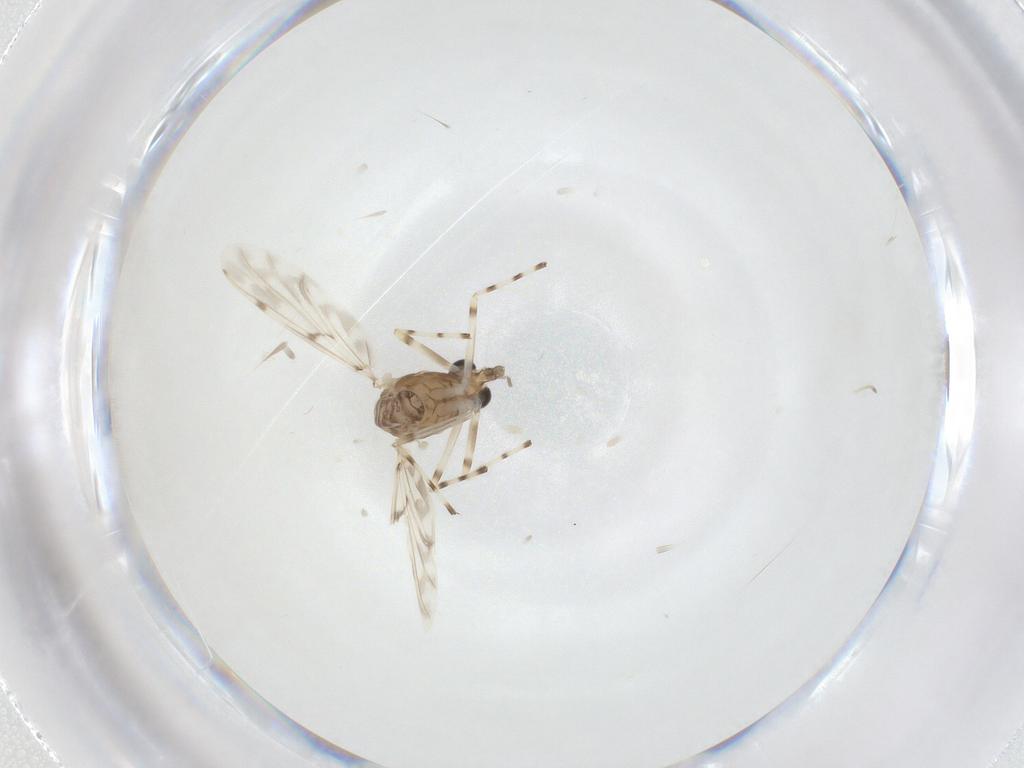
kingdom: Animalia
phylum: Arthropoda
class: Insecta
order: Diptera
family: Chironomidae
